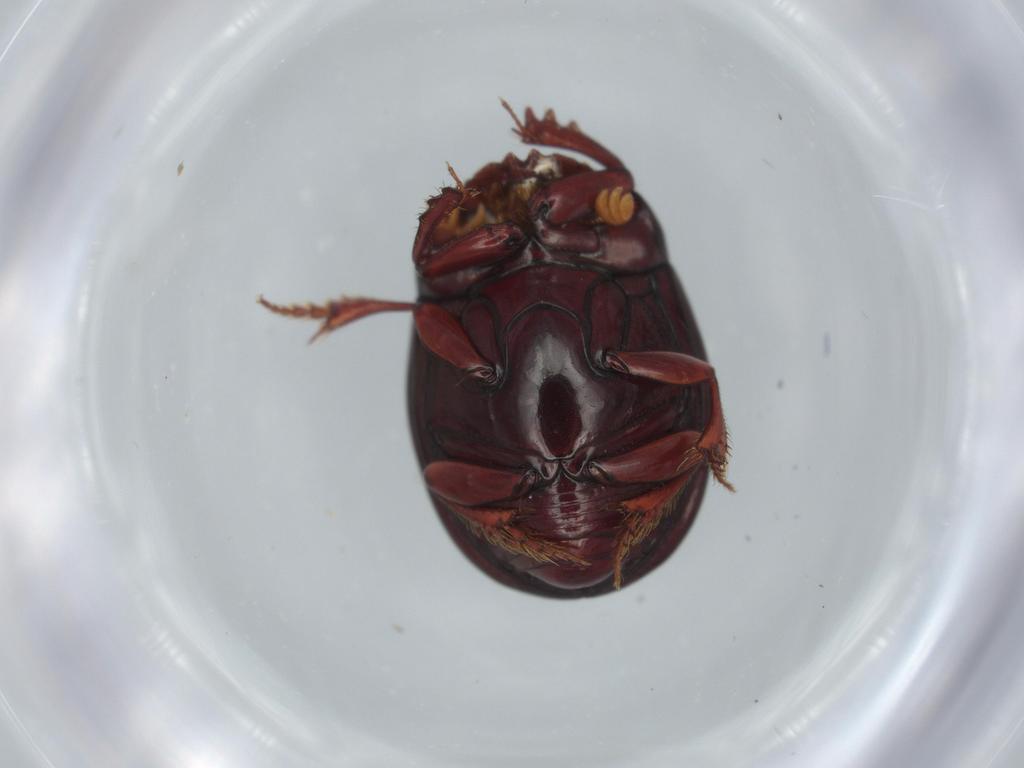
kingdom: Animalia
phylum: Arthropoda
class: Insecta
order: Coleoptera
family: Scarabaeidae
